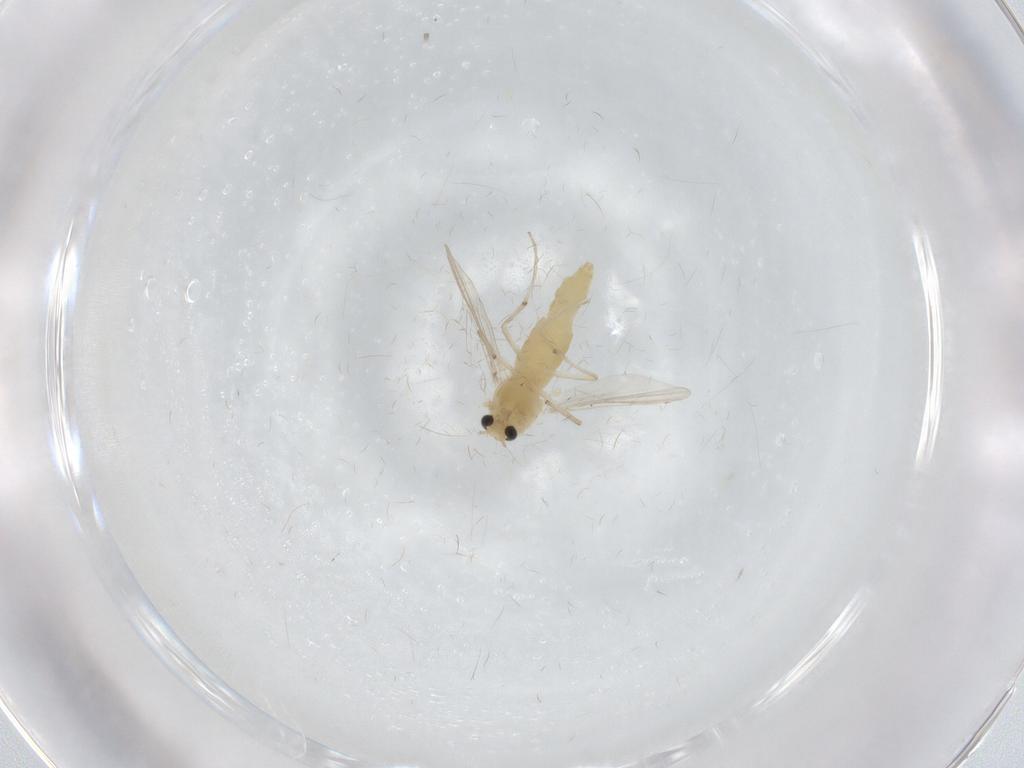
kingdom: Animalia
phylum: Arthropoda
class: Insecta
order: Diptera
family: Chironomidae
